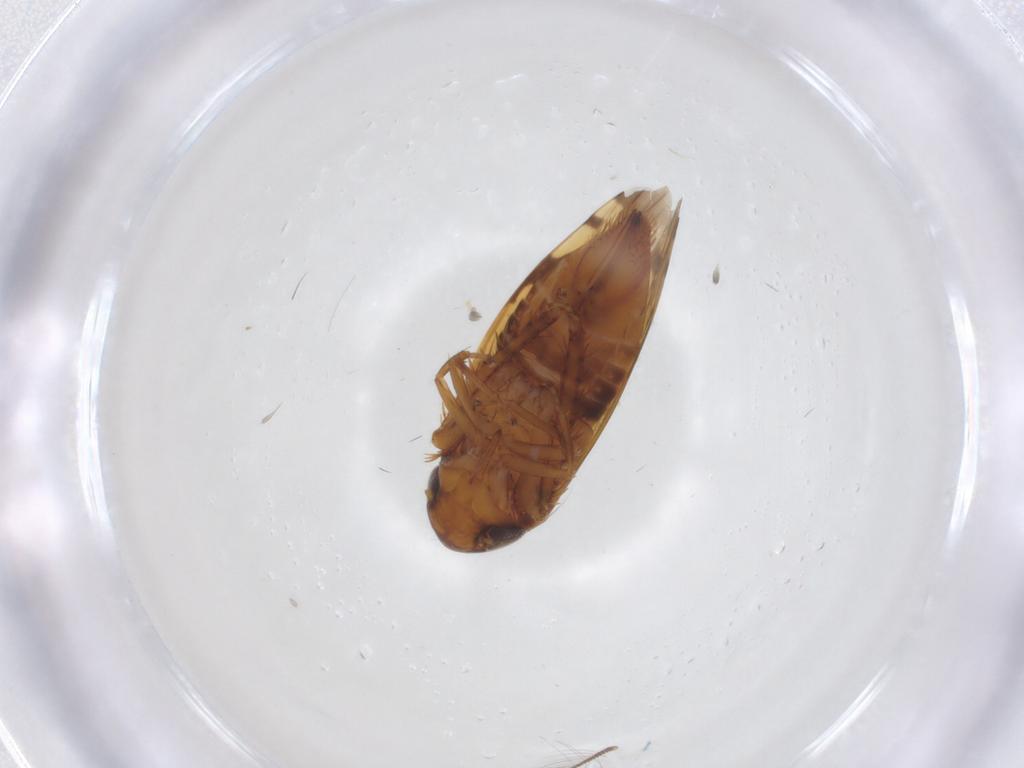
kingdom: Animalia
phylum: Arthropoda
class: Insecta
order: Hemiptera
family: Cicadellidae
